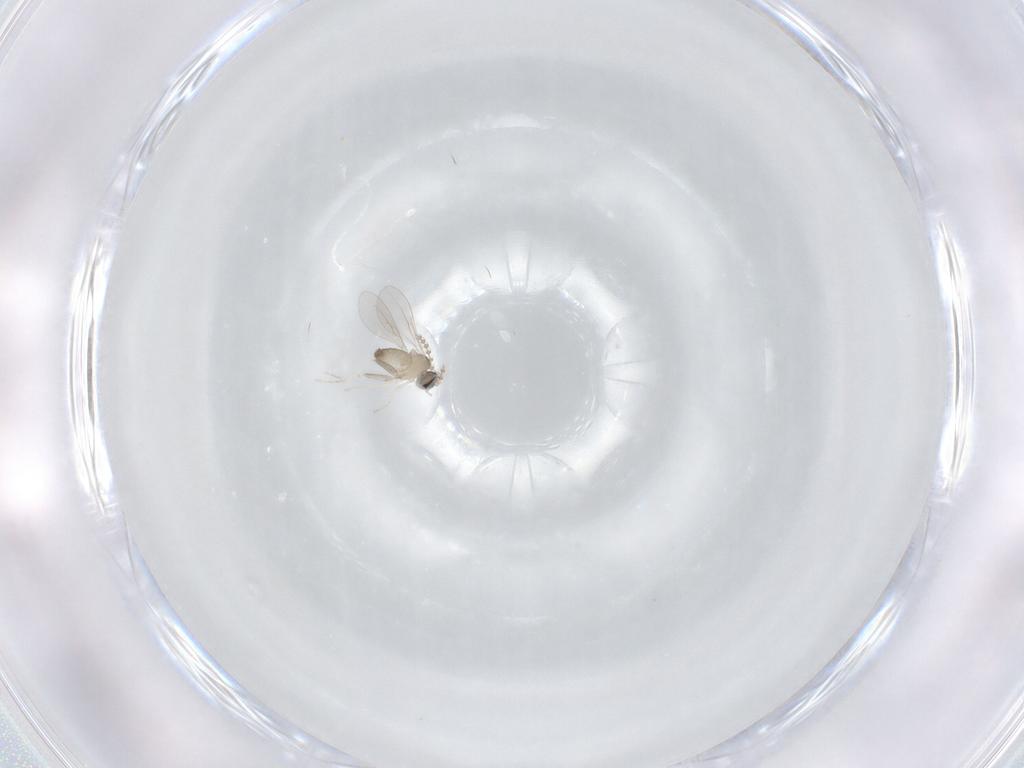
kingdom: Animalia
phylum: Arthropoda
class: Insecta
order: Diptera
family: Cecidomyiidae
